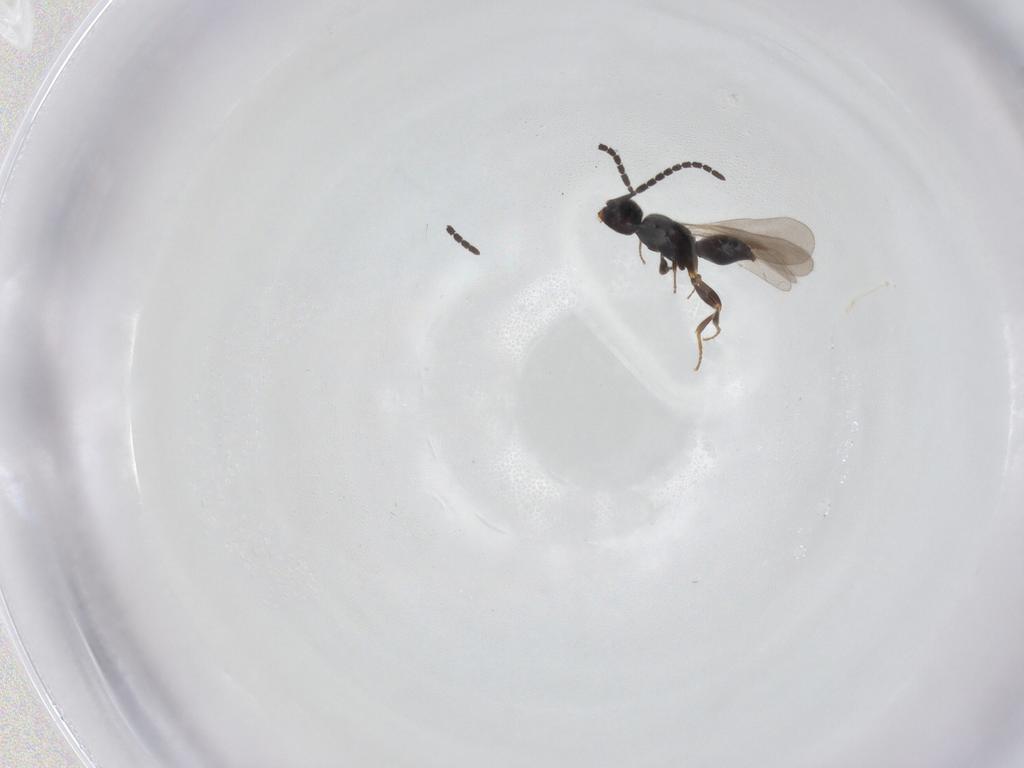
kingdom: Animalia
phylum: Arthropoda
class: Insecta
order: Hymenoptera
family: Ceraphronidae
